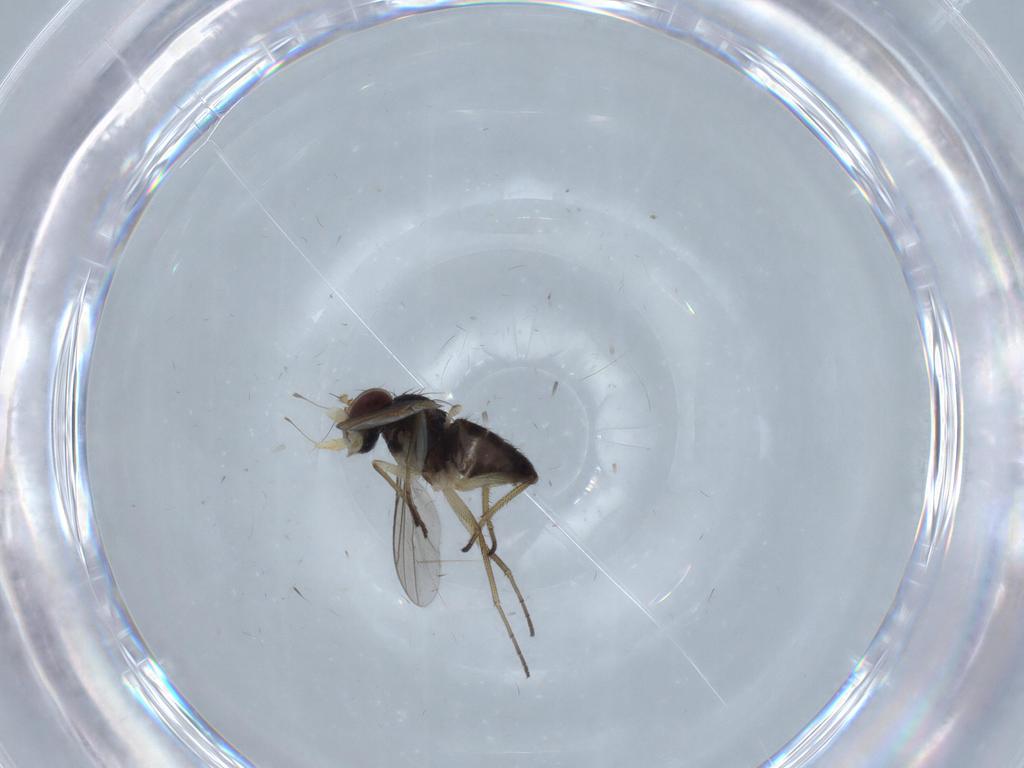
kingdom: Animalia
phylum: Arthropoda
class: Insecta
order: Diptera
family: Dolichopodidae
